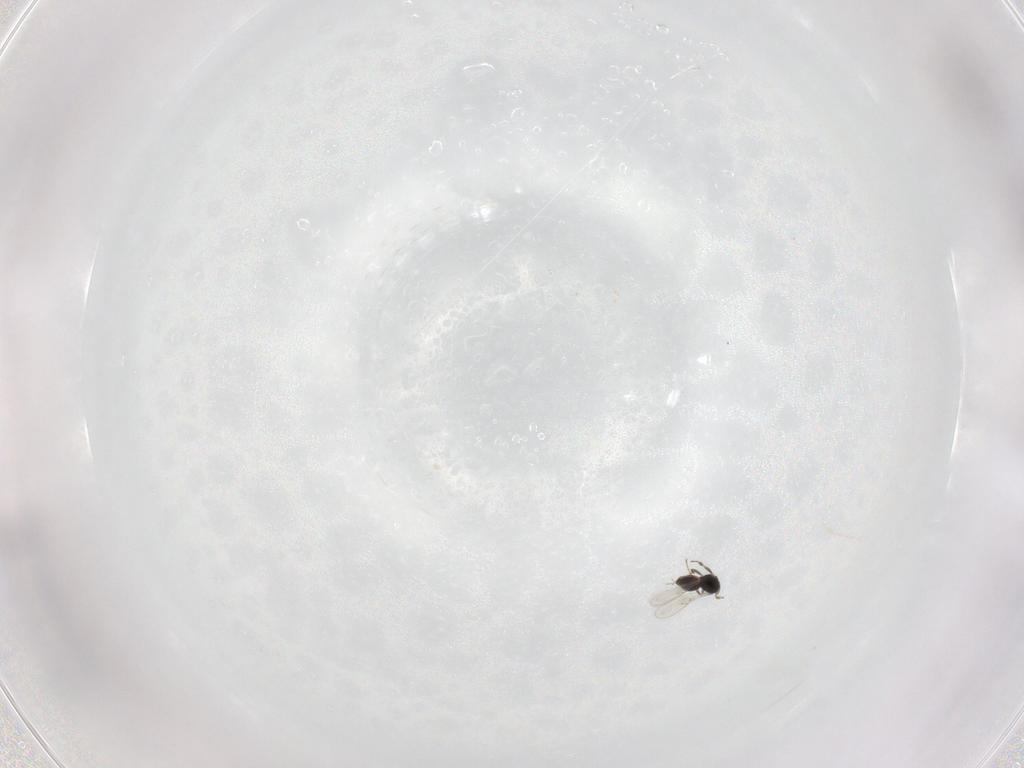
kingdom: Animalia
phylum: Arthropoda
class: Insecta
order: Hymenoptera
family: Scelionidae
